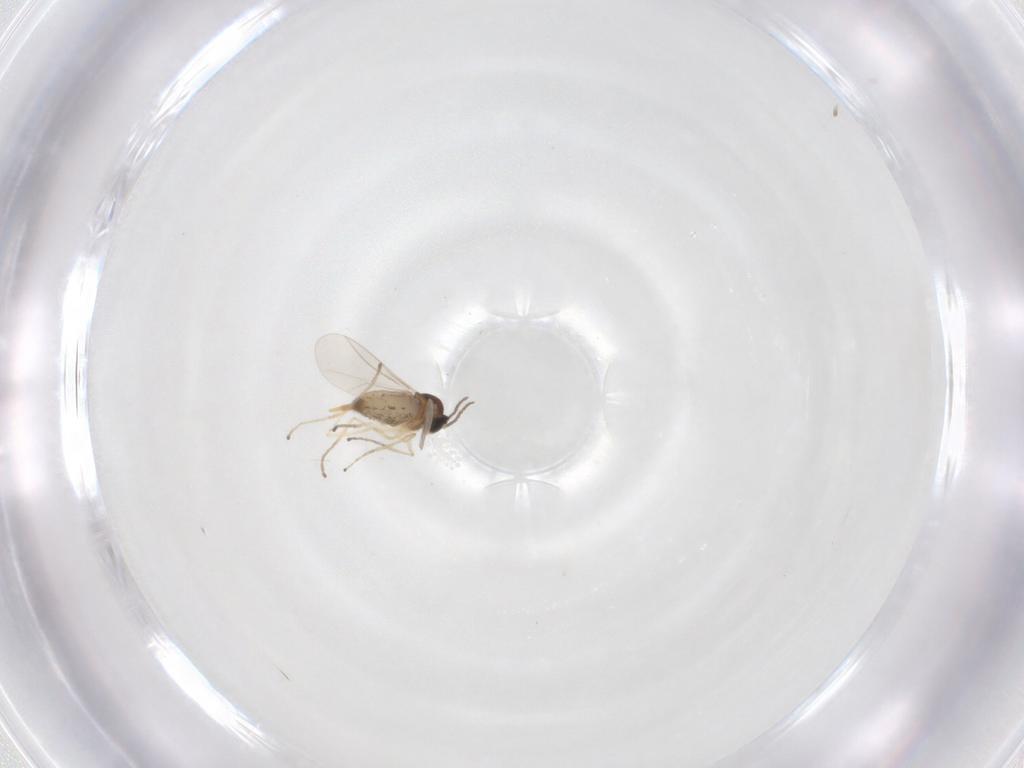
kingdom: Animalia
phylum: Arthropoda
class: Insecta
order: Diptera
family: Cecidomyiidae
